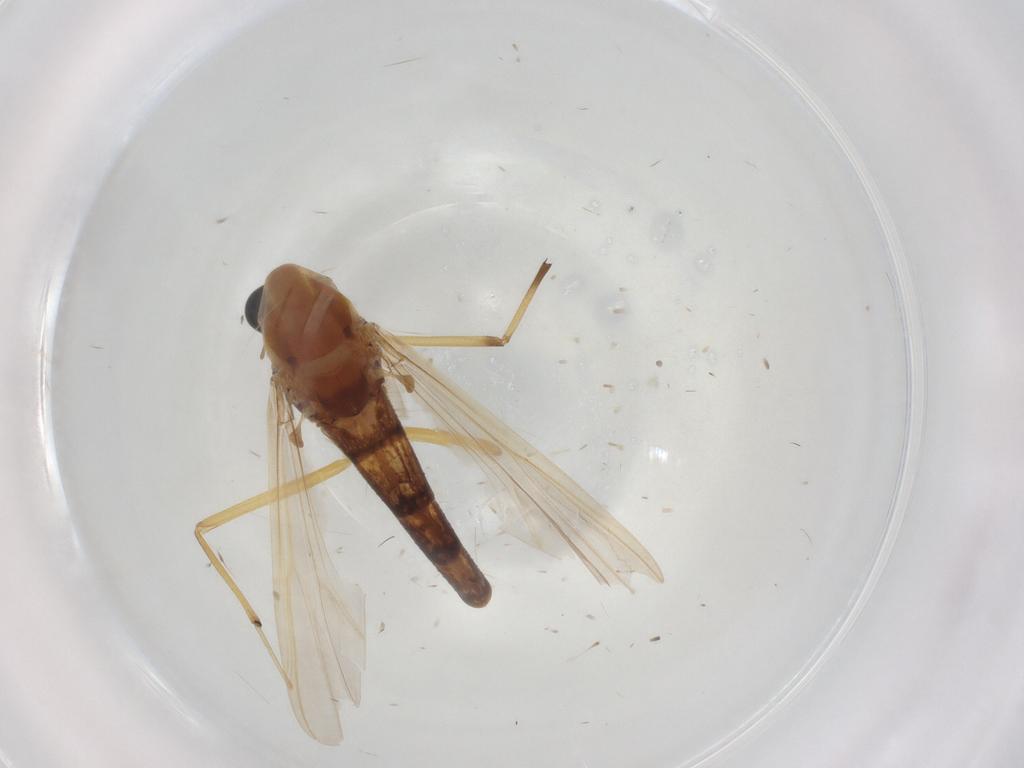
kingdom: Animalia
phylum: Arthropoda
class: Insecta
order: Diptera
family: Chironomidae
